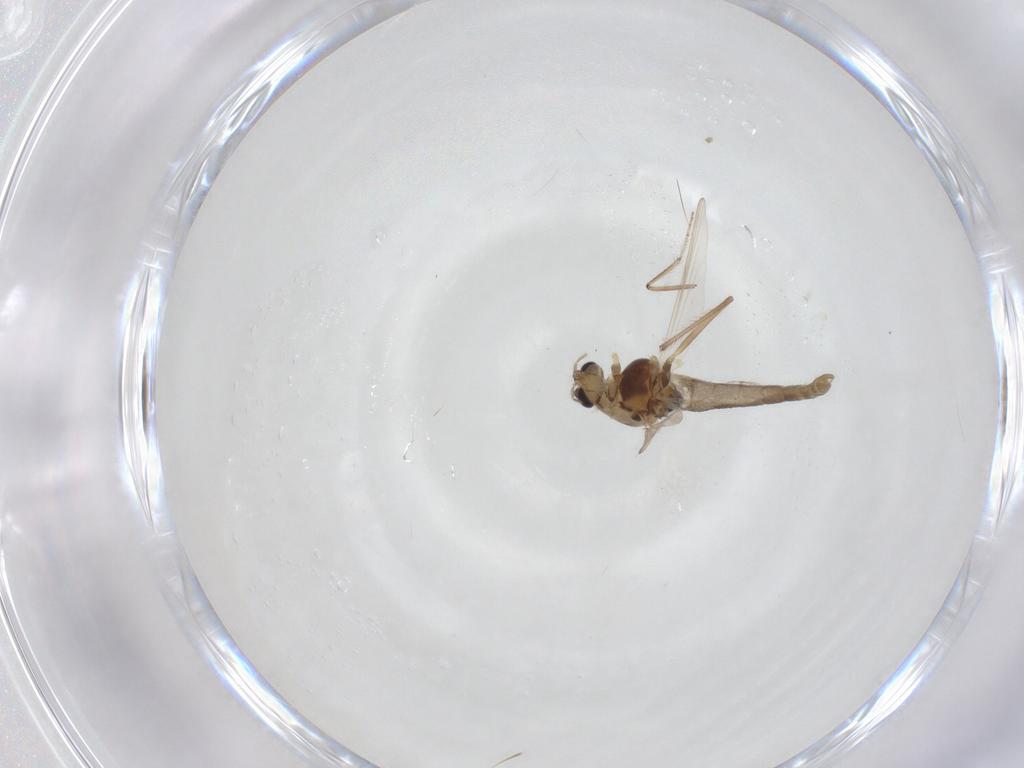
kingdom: Animalia
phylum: Arthropoda
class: Insecta
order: Diptera
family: Chironomidae
